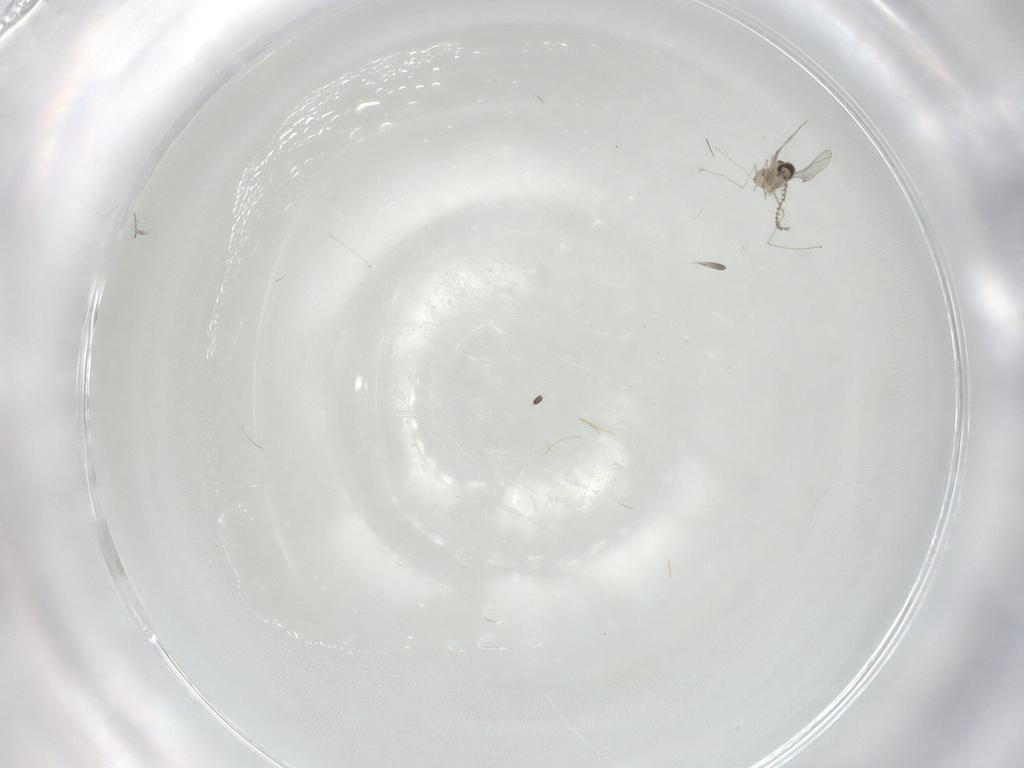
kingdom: Animalia
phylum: Arthropoda
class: Insecta
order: Diptera
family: Cecidomyiidae
